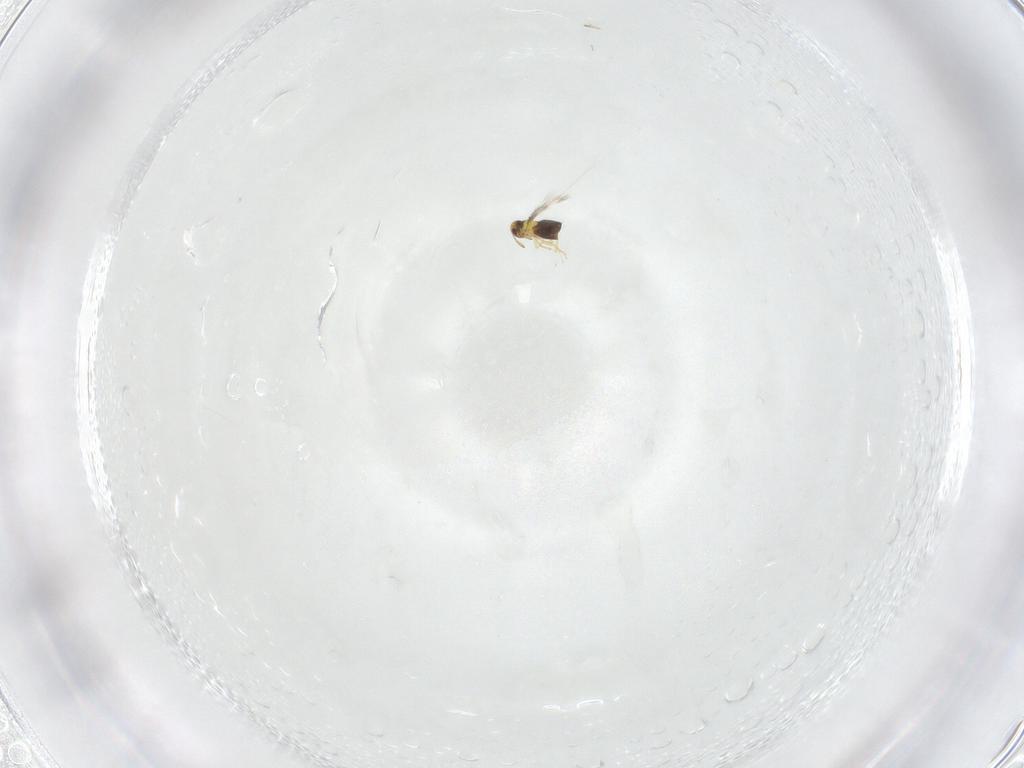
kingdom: Animalia
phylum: Arthropoda
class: Insecta
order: Hymenoptera
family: Signiphoridae
